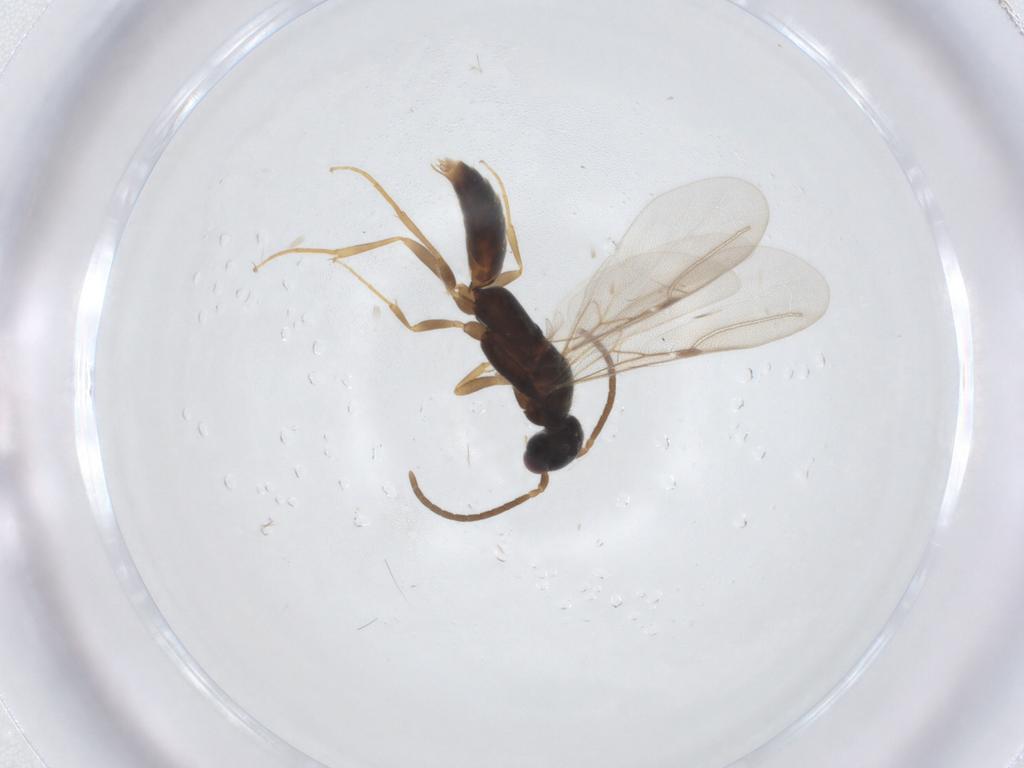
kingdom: Animalia
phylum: Arthropoda
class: Insecta
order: Hymenoptera
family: Bethylidae
